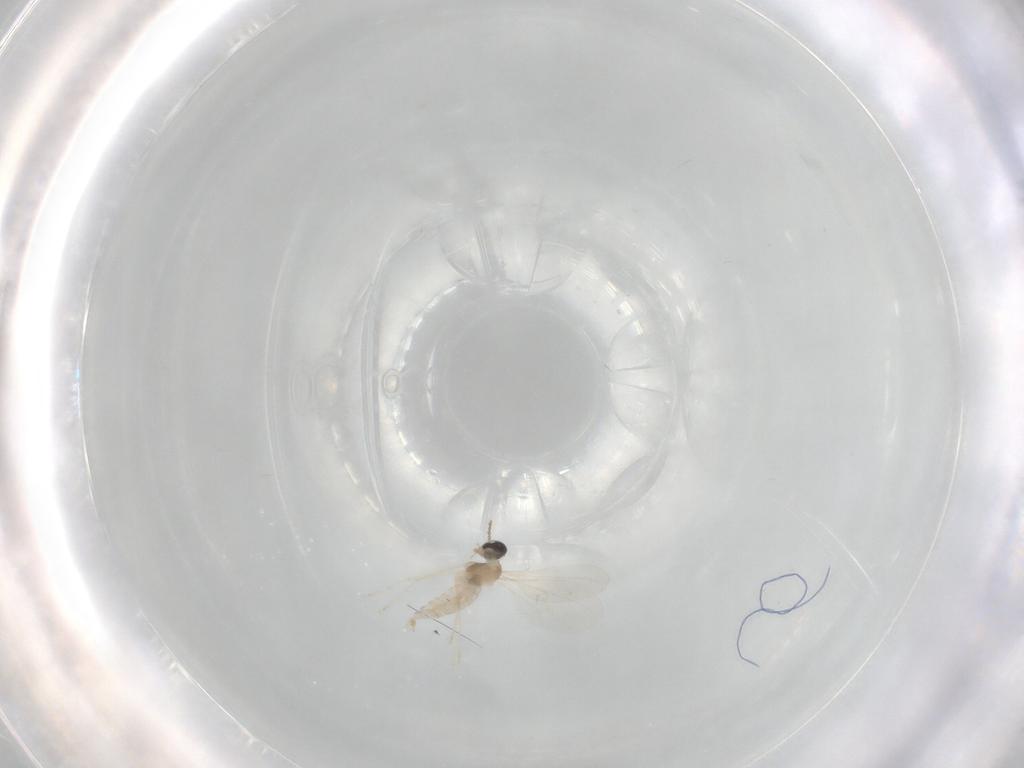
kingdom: Animalia
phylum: Arthropoda
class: Insecta
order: Diptera
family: Cecidomyiidae
